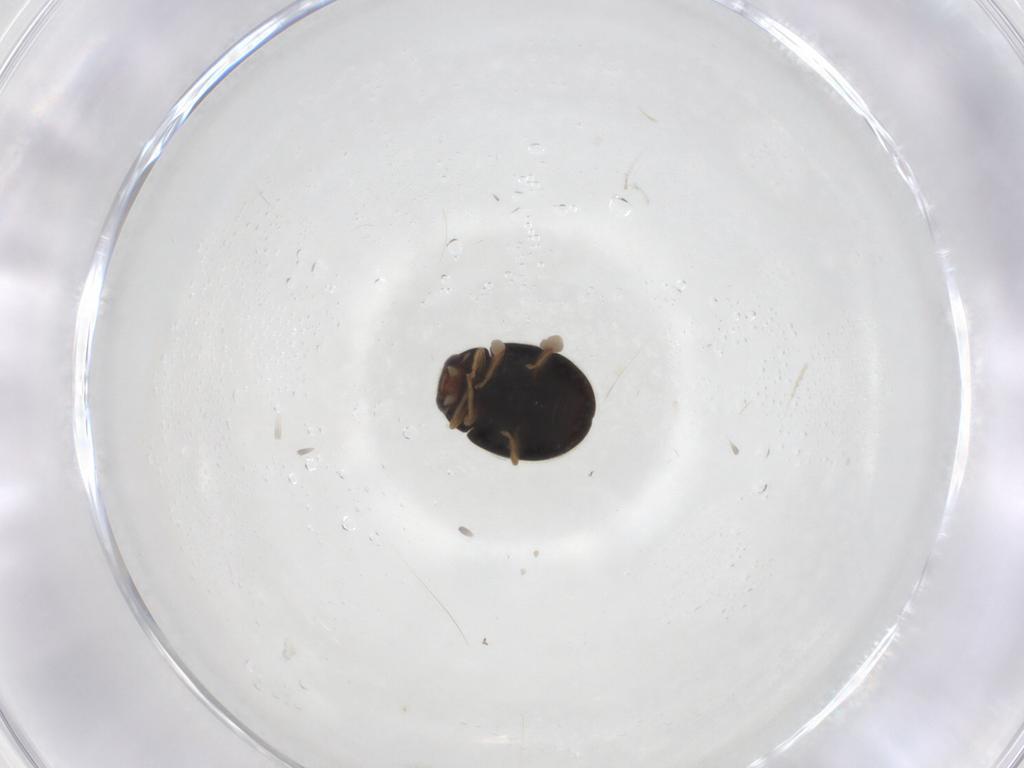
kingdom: Animalia
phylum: Arthropoda
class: Insecta
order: Coleoptera
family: Coccinellidae
